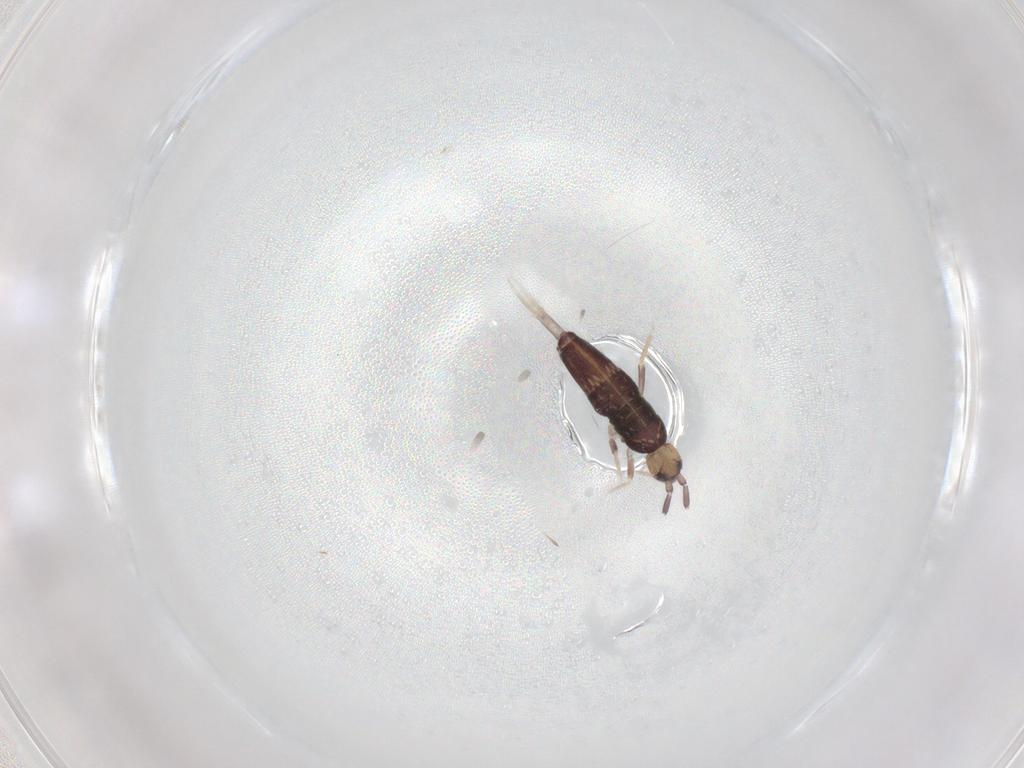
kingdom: Animalia
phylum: Arthropoda
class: Collembola
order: Entomobryomorpha
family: Entomobryidae
